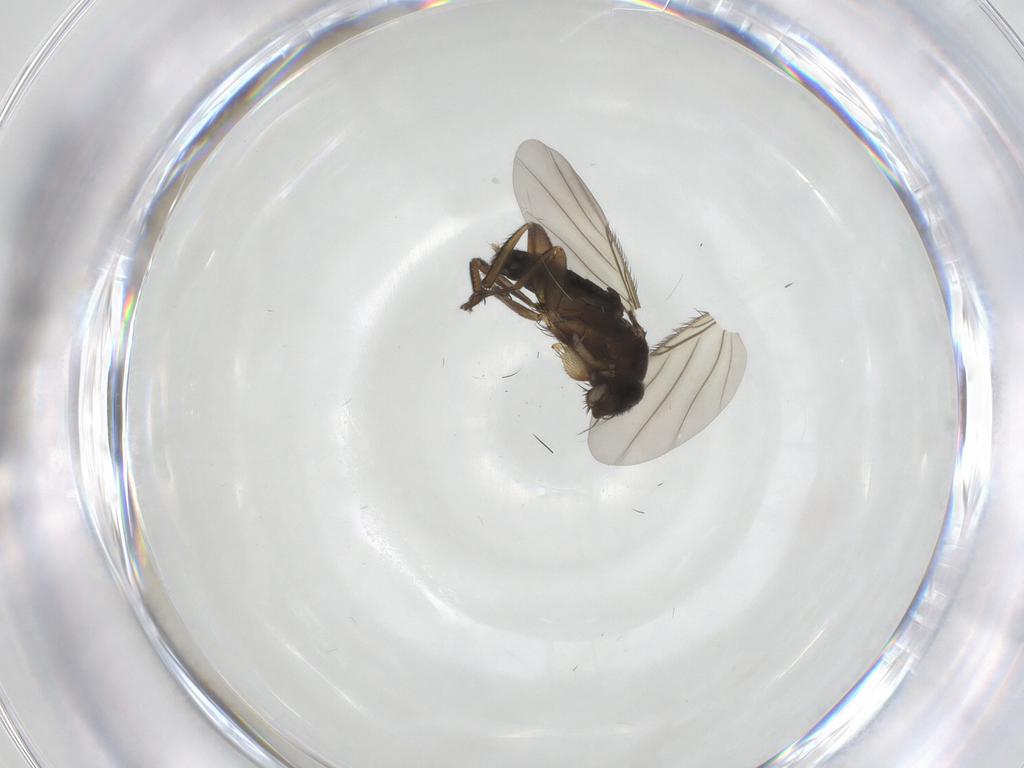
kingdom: Animalia
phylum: Arthropoda
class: Insecta
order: Diptera
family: Phoridae
